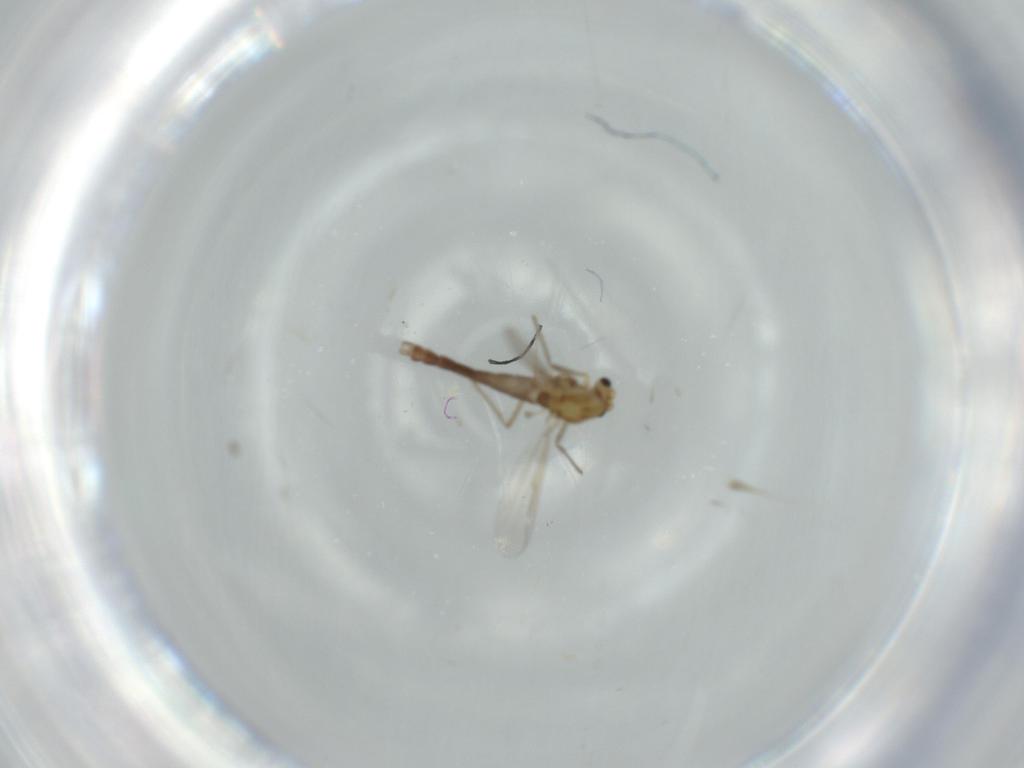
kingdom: Animalia
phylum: Arthropoda
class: Insecta
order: Diptera
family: Chironomidae
